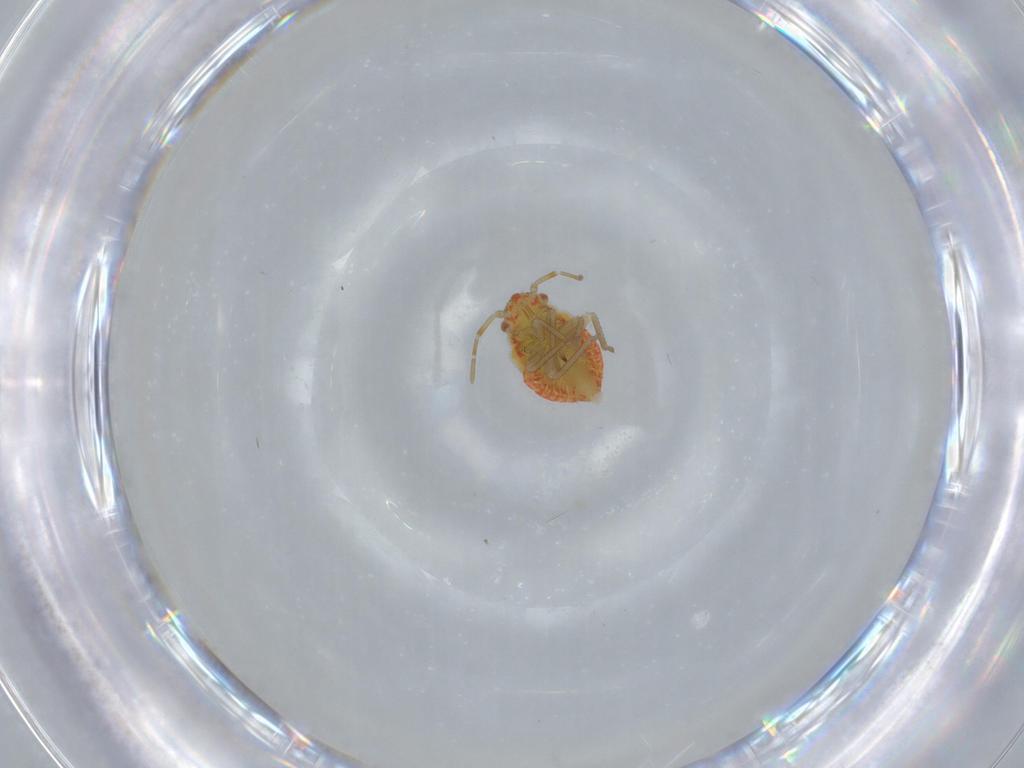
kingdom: Animalia
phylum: Arthropoda
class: Insecta
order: Hemiptera
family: Miridae
